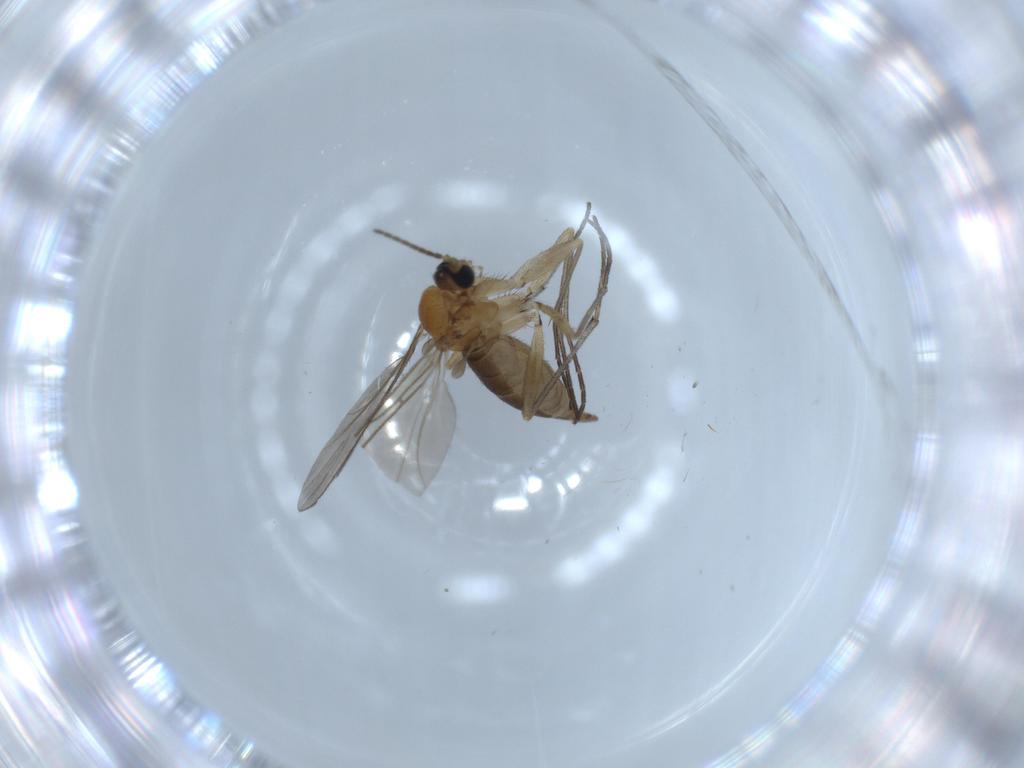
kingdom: Animalia
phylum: Arthropoda
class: Insecta
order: Diptera
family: Sciaridae
